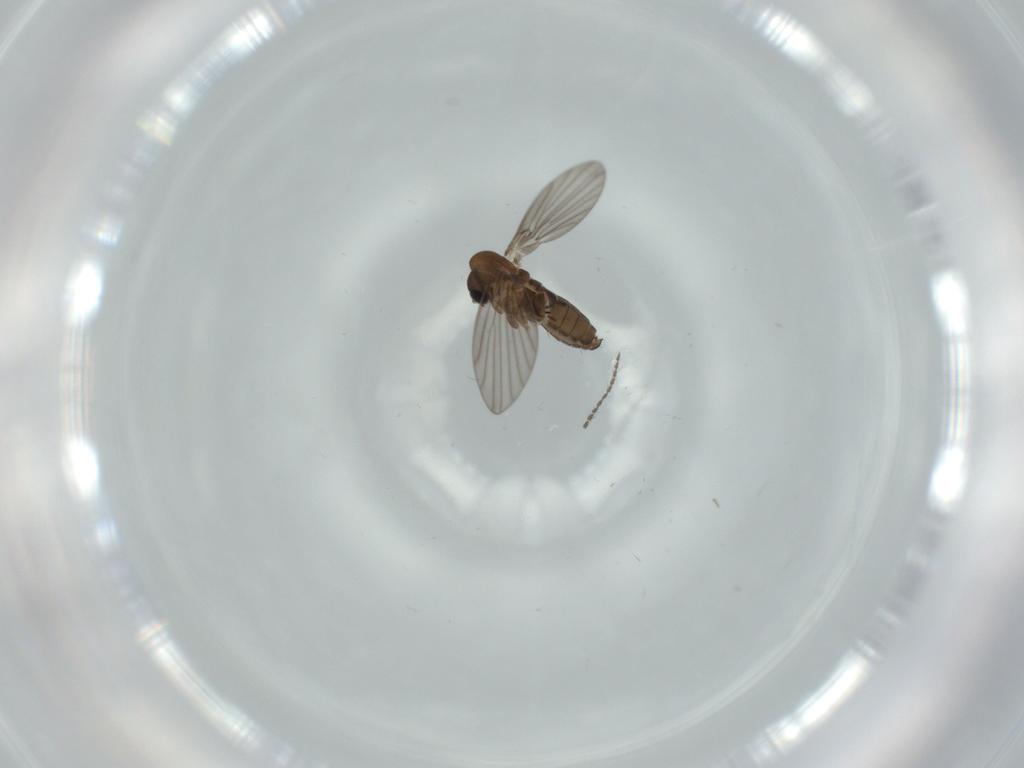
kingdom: Animalia
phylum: Arthropoda
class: Insecta
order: Diptera
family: Psychodidae
